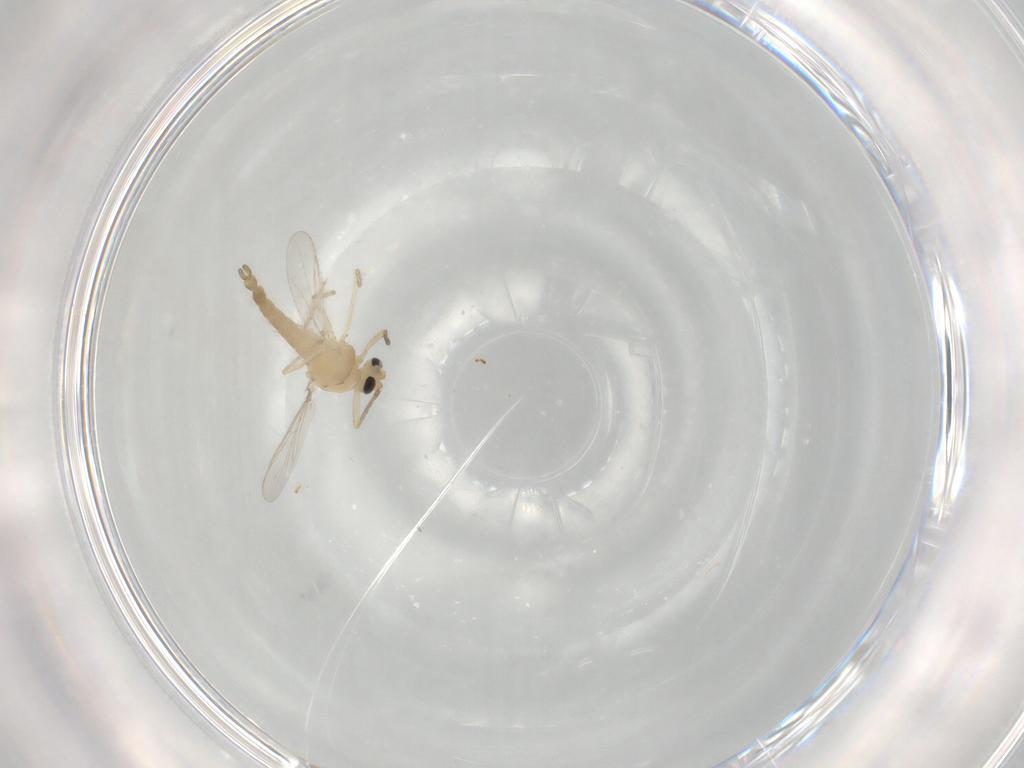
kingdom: Animalia
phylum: Arthropoda
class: Insecta
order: Diptera
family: Chironomidae
